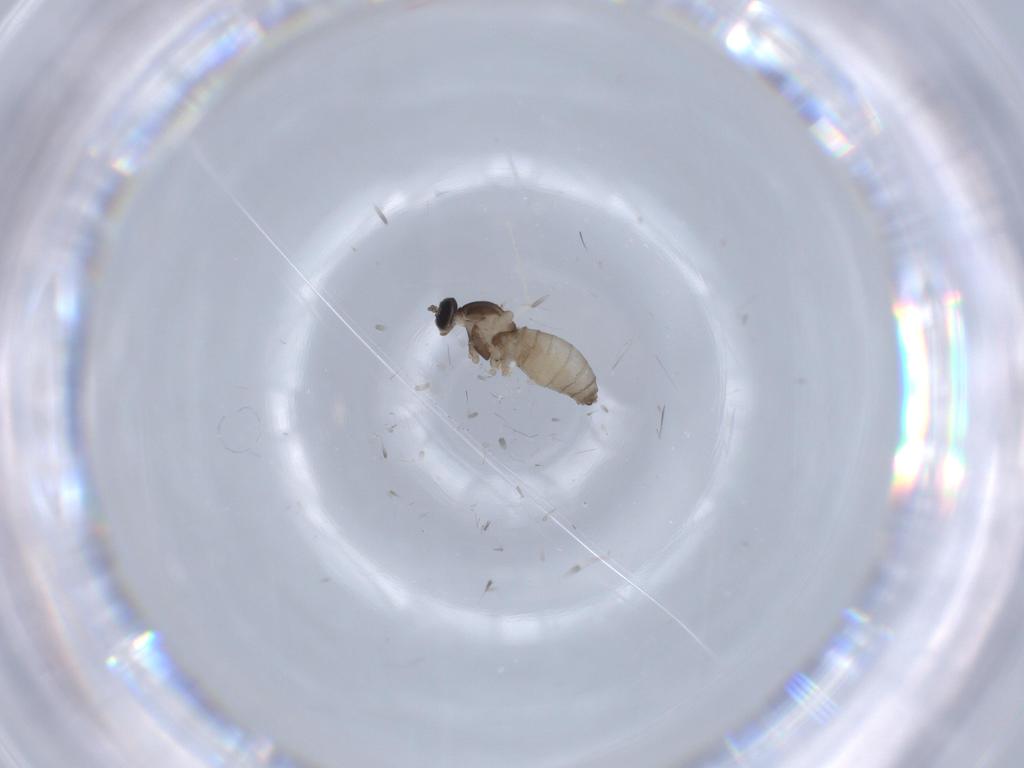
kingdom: Animalia
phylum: Arthropoda
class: Insecta
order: Diptera
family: Cecidomyiidae
